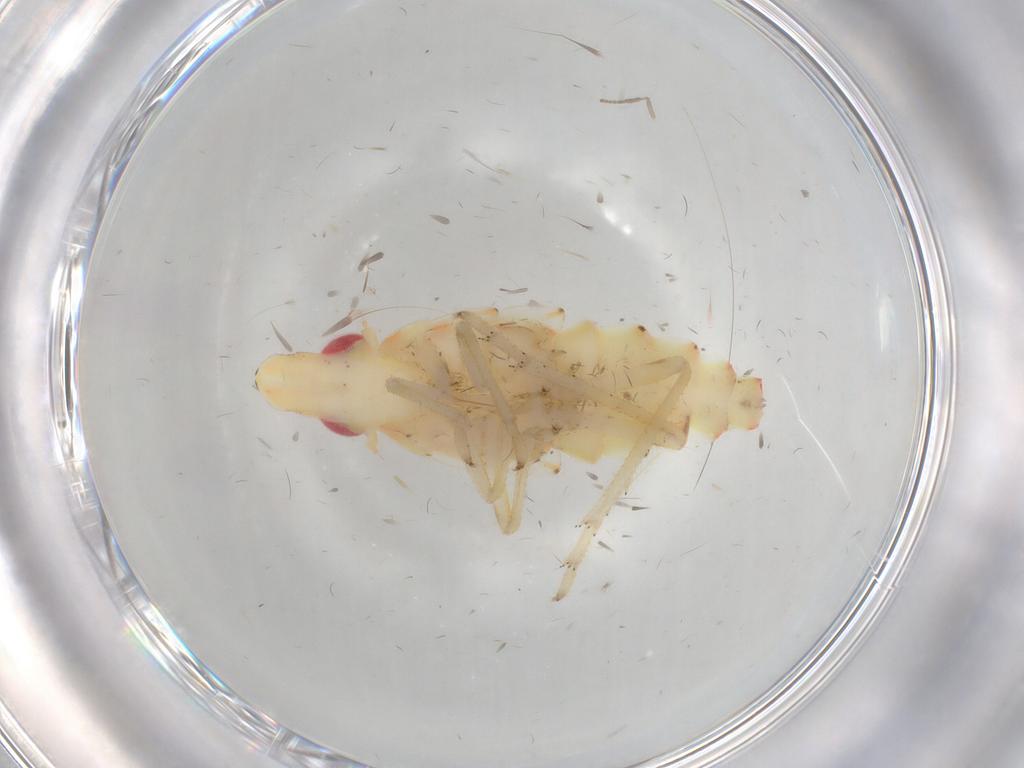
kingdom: Animalia
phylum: Arthropoda
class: Insecta
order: Hemiptera
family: Tropiduchidae
